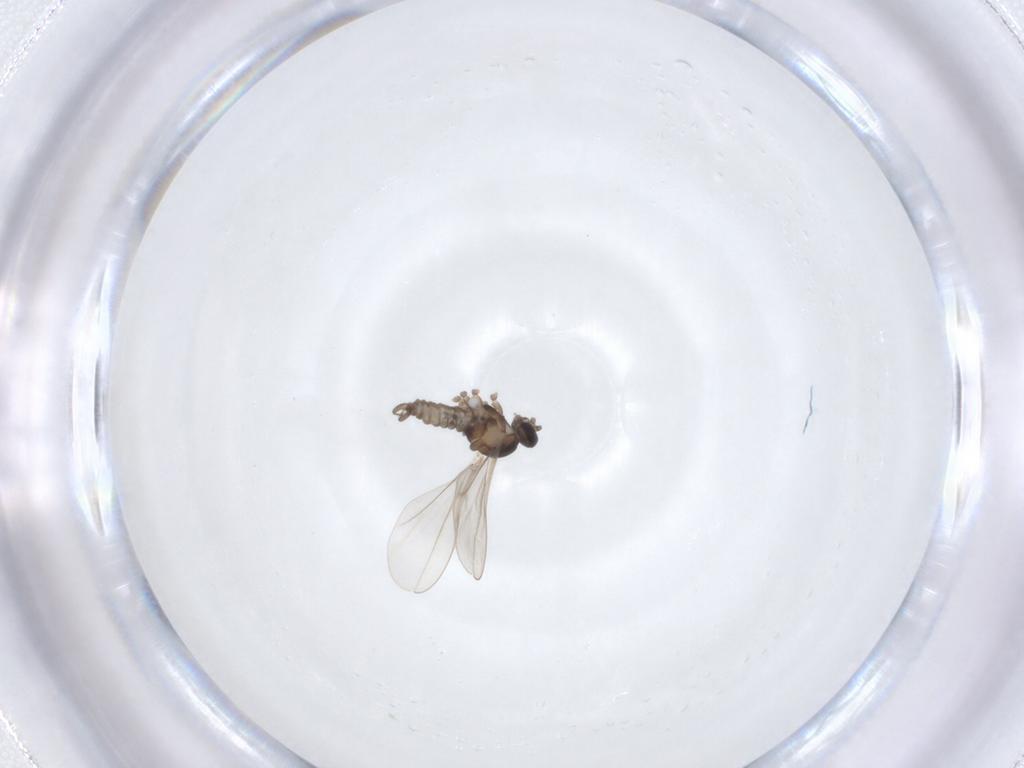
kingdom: Animalia
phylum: Arthropoda
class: Insecta
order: Diptera
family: Cecidomyiidae
